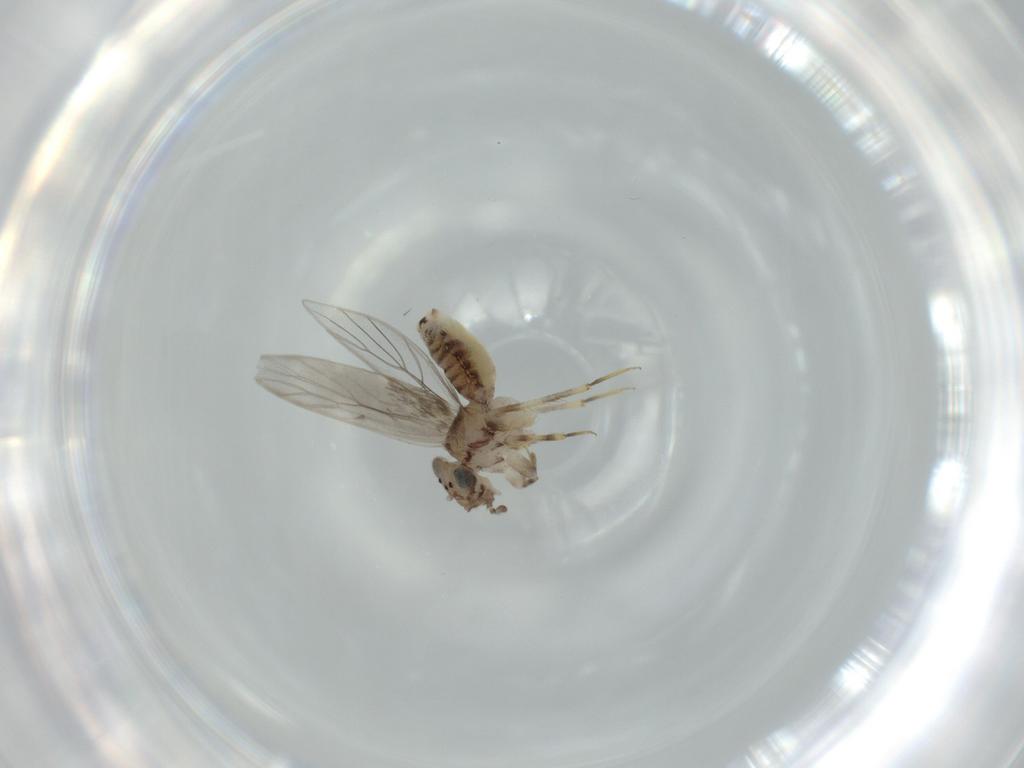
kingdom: Animalia
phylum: Arthropoda
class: Insecta
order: Psocodea
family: Lepidopsocidae
